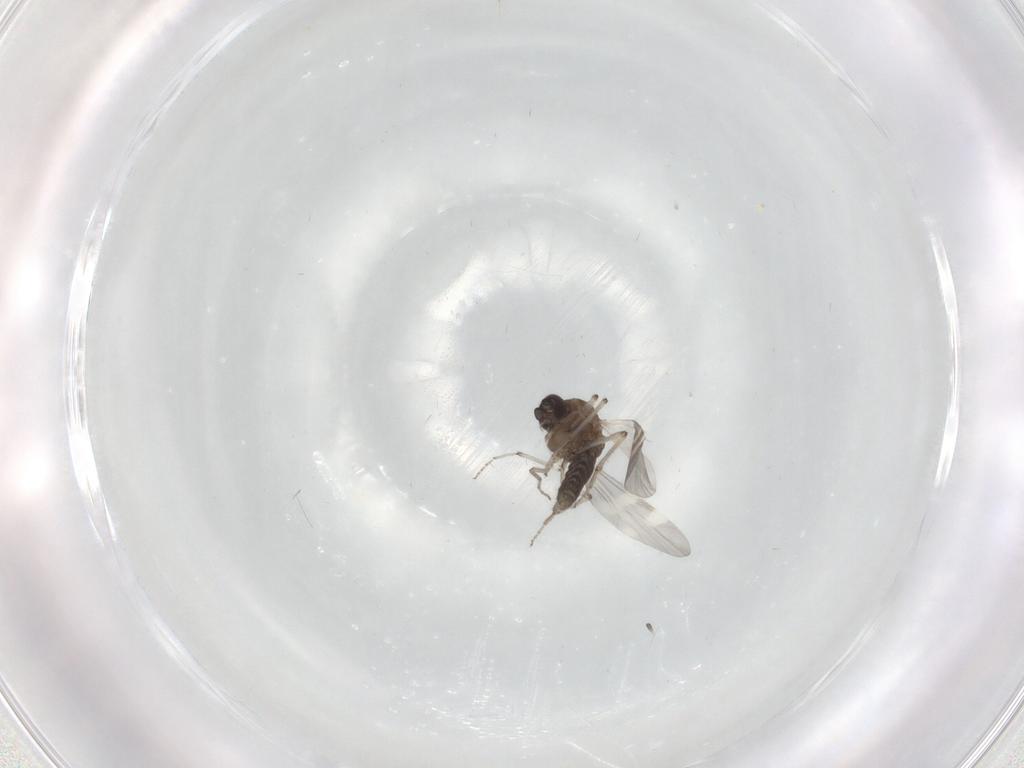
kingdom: Animalia
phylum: Arthropoda
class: Insecta
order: Diptera
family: Ceratopogonidae
